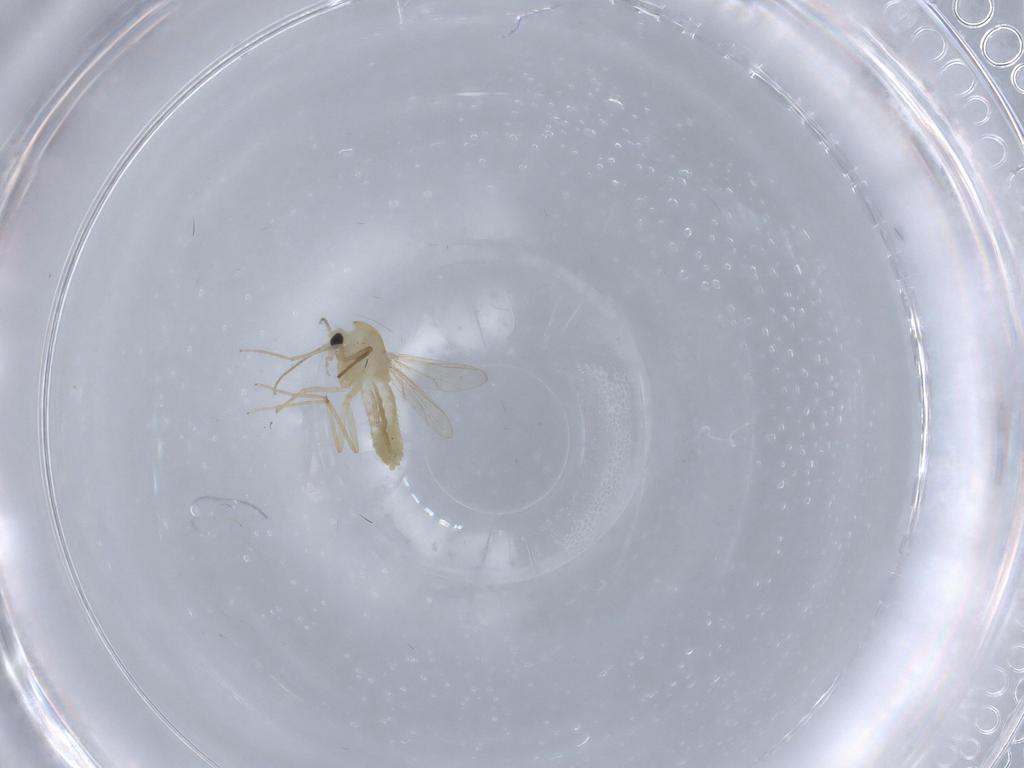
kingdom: Animalia
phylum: Arthropoda
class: Insecta
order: Diptera
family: Chironomidae
